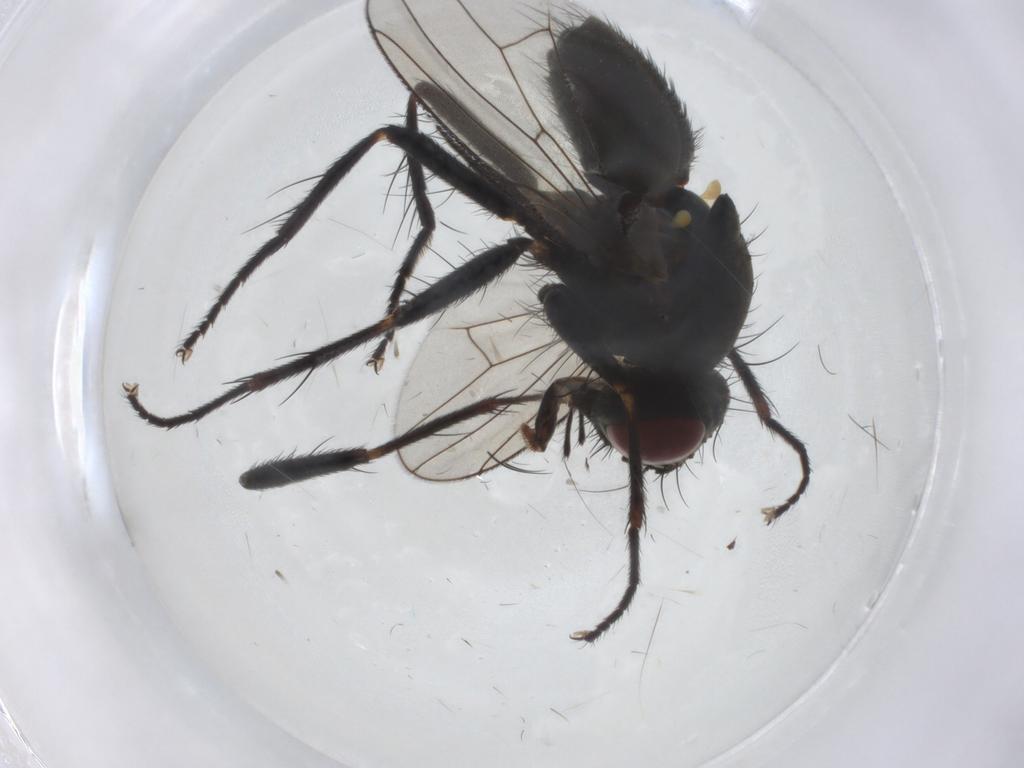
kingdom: Animalia
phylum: Arthropoda
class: Insecta
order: Diptera
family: Muscidae
